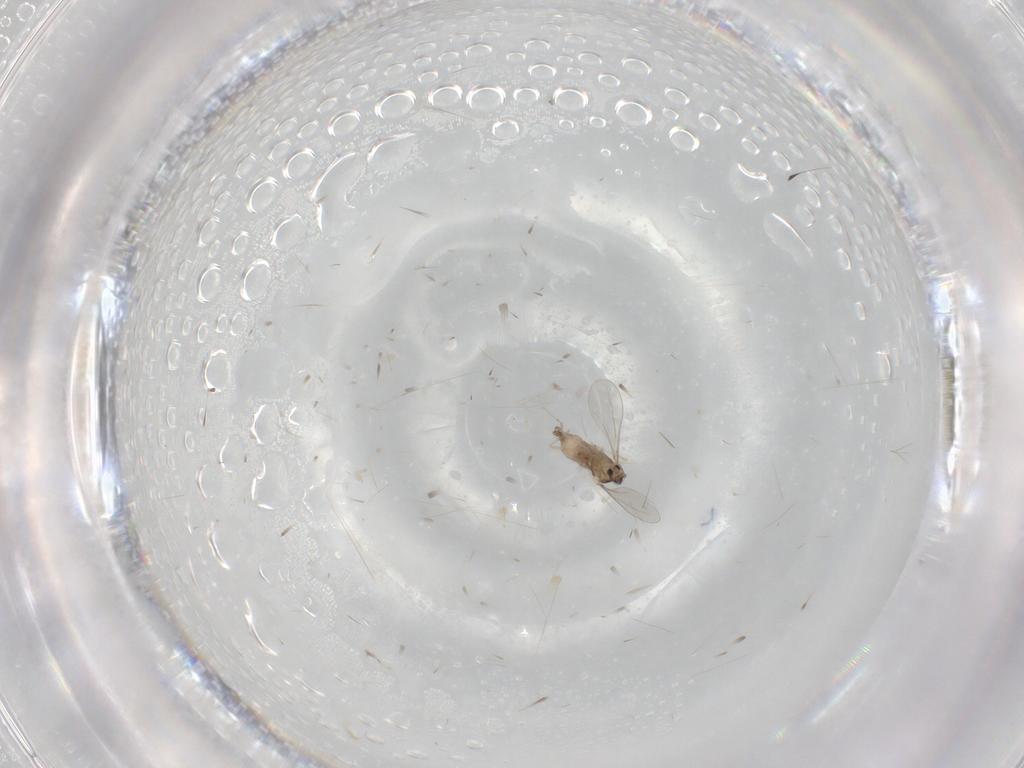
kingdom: Animalia
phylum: Arthropoda
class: Insecta
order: Diptera
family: Cecidomyiidae
